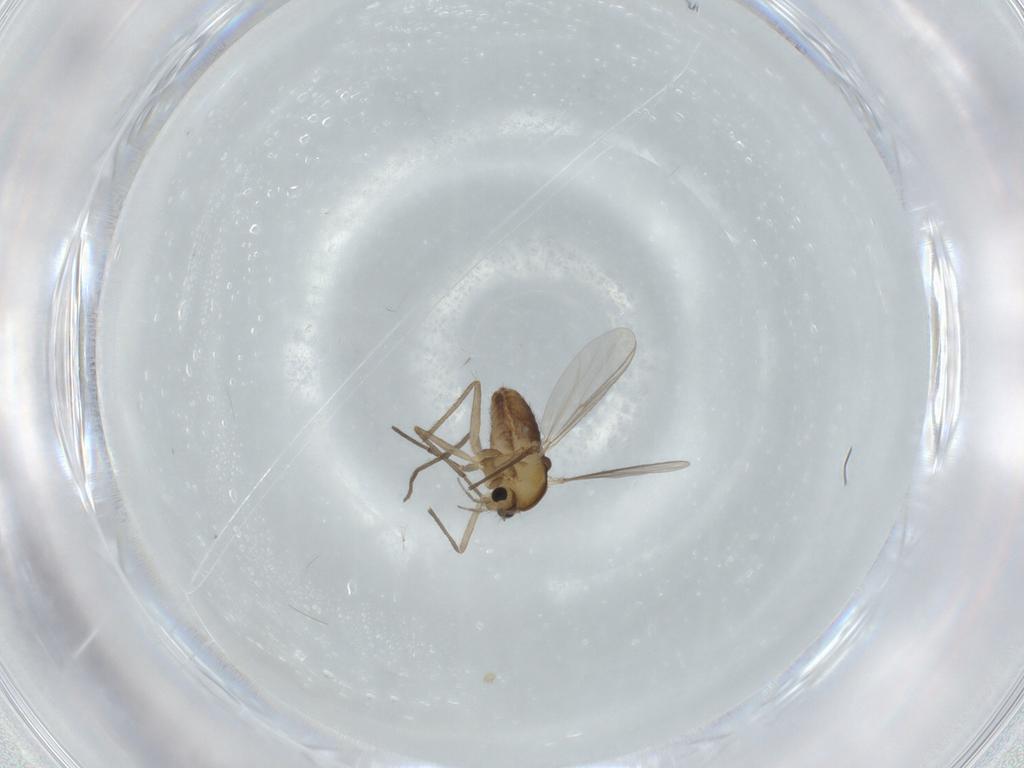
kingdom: Animalia
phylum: Arthropoda
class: Insecta
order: Diptera
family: Chironomidae
